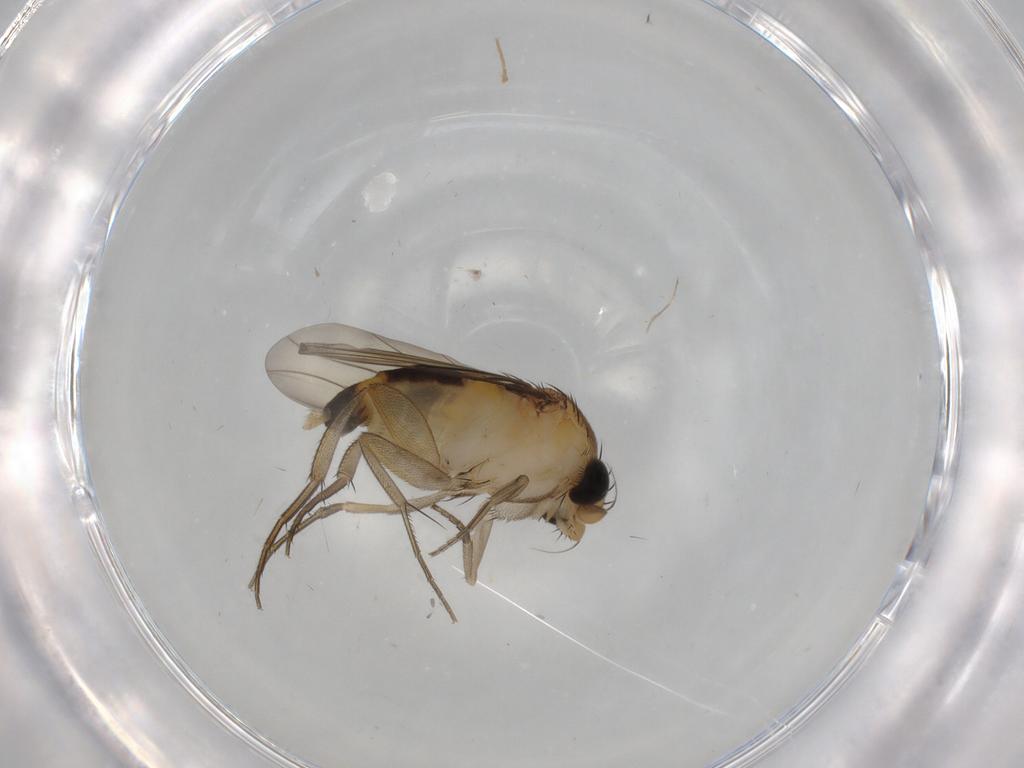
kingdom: Animalia
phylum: Arthropoda
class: Insecta
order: Diptera
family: Phoridae
